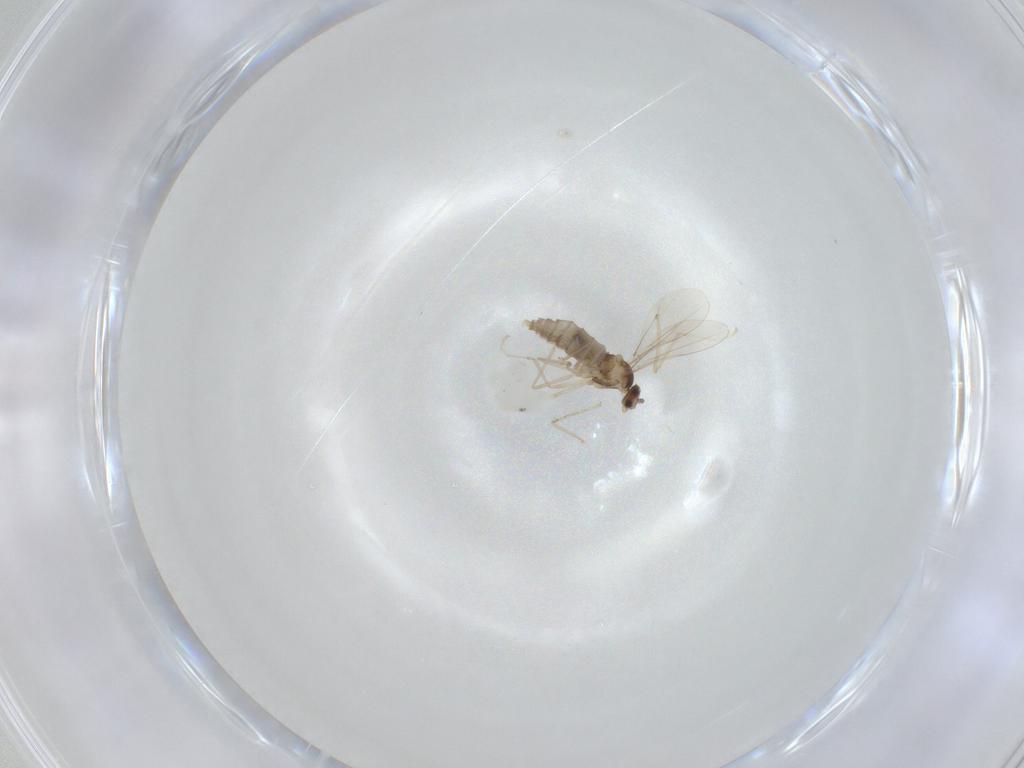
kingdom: Animalia
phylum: Arthropoda
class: Insecta
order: Diptera
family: Cecidomyiidae
